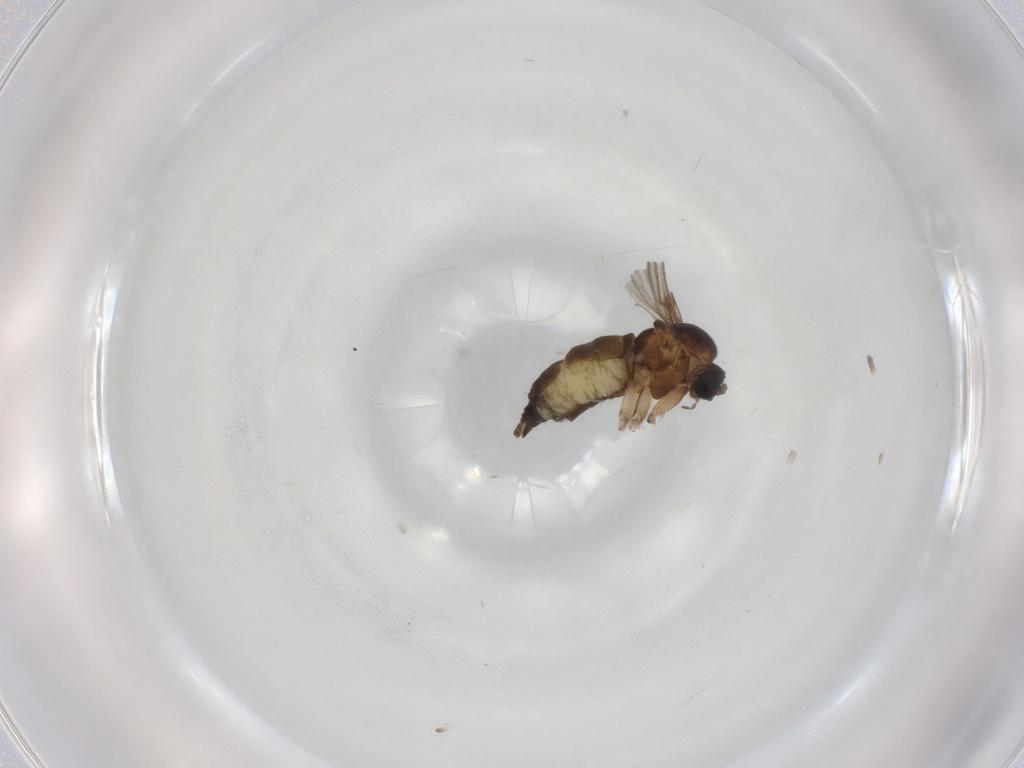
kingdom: Animalia
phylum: Arthropoda
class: Insecta
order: Diptera
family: Sciaridae
